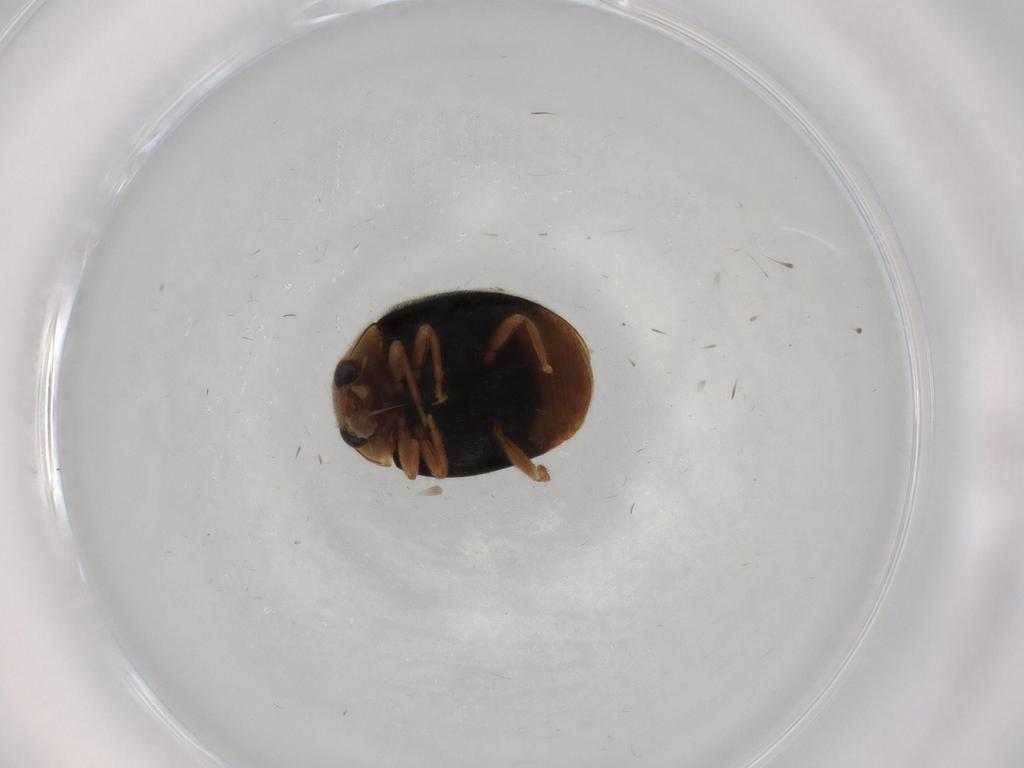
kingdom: Animalia
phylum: Arthropoda
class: Insecta
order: Coleoptera
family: Coccinellidae
